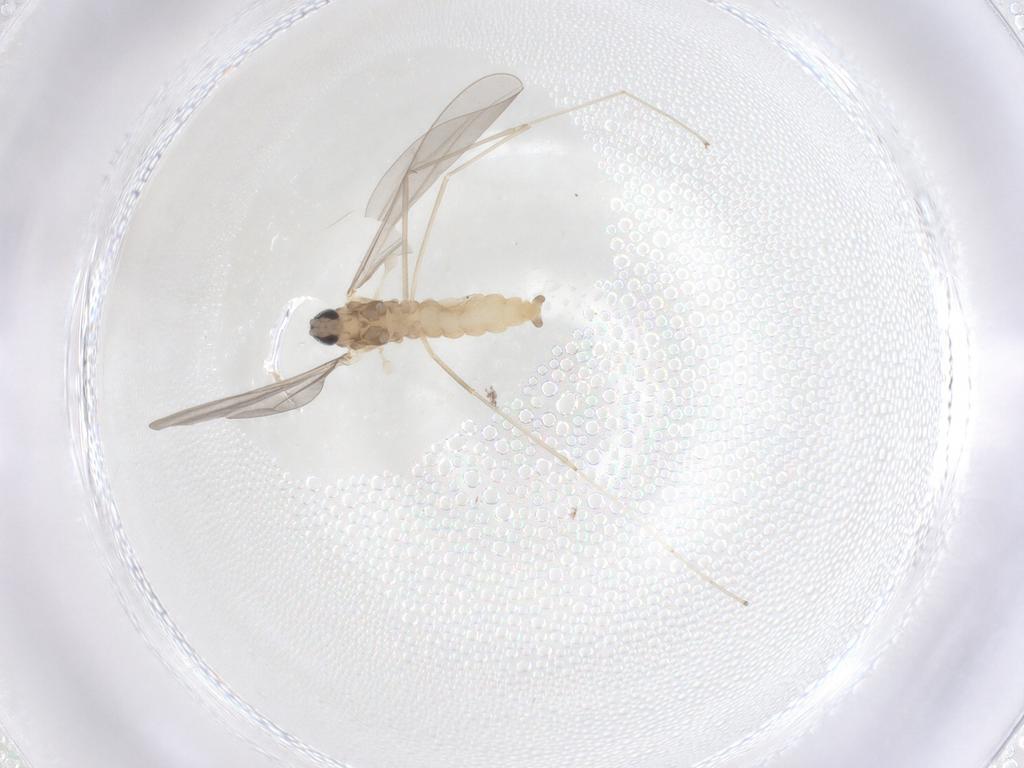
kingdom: Animalia
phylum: Arthropoda
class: Insecta
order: Diptera
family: Cecidomyiidae
